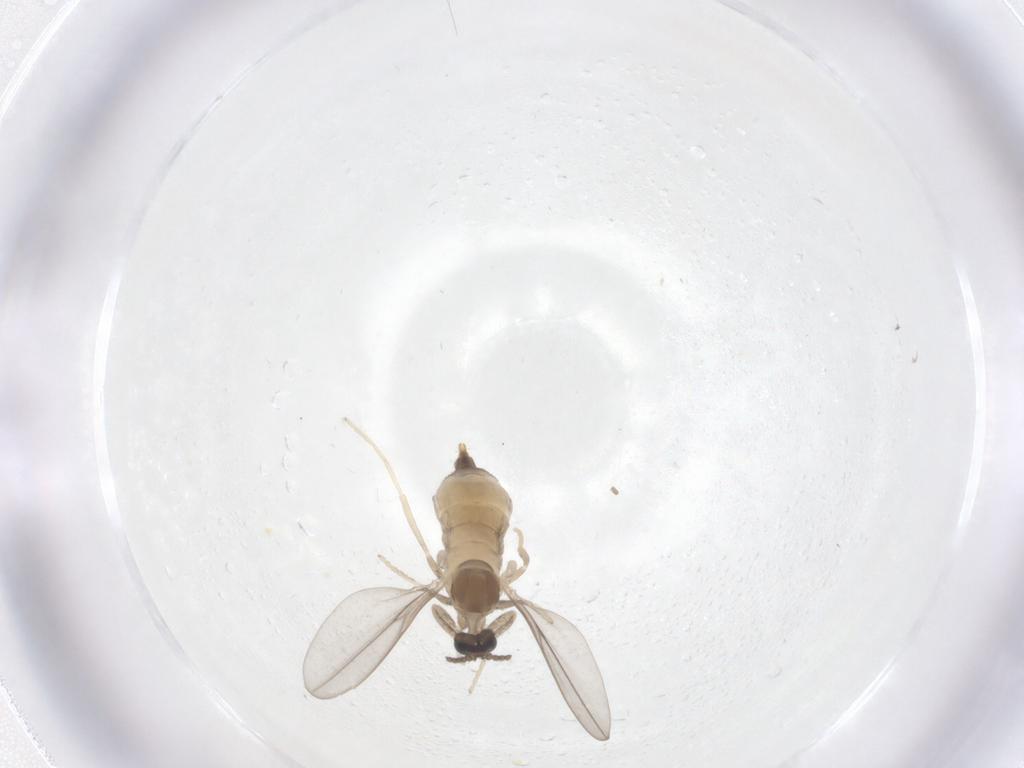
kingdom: Animalia
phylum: Arthropoda
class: Insecta
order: Diptera
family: Cecidomyiidae
